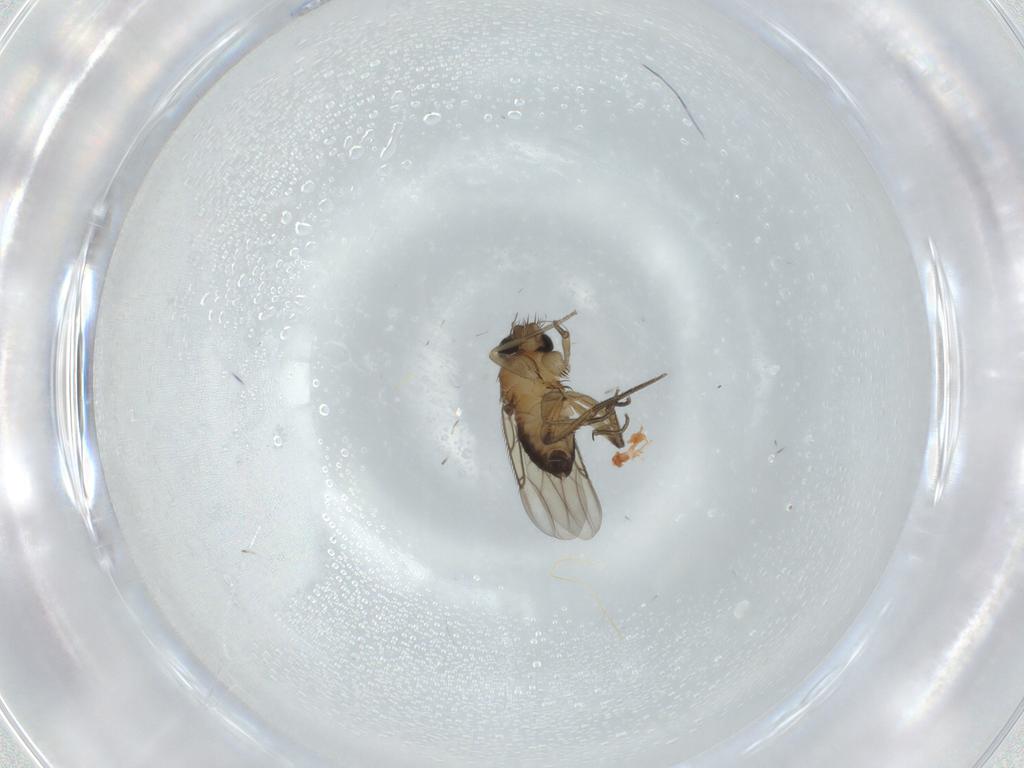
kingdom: Animalia
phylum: Arthropoda
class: Insecta
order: Diptera
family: Phoridae
